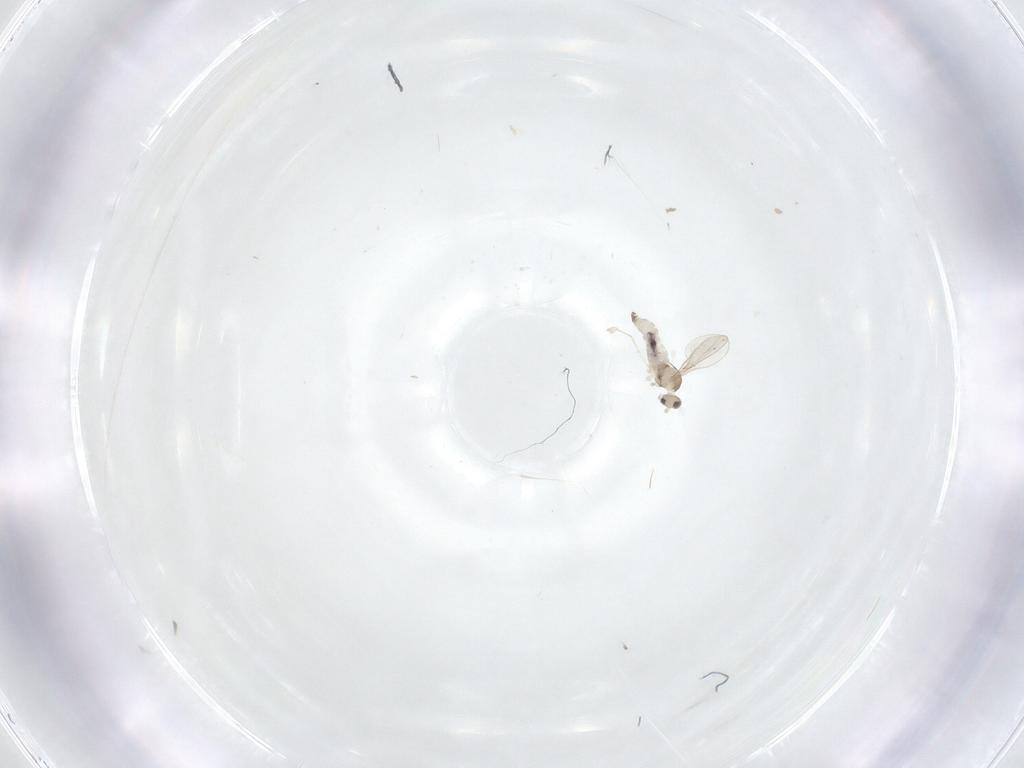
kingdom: Animalia
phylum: Arthropoda
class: Insecta
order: Diptera
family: Cecidomyiidae
